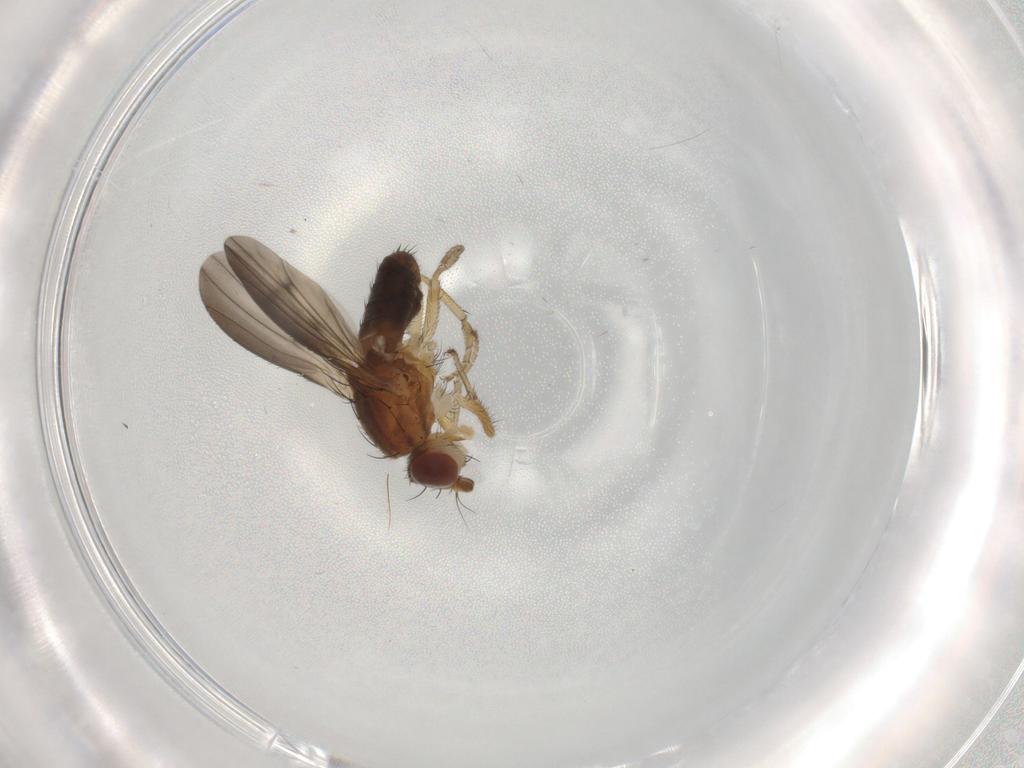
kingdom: Animalia
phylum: Arthropoda
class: Insecta
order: Diptera
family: Heleomyzidae
